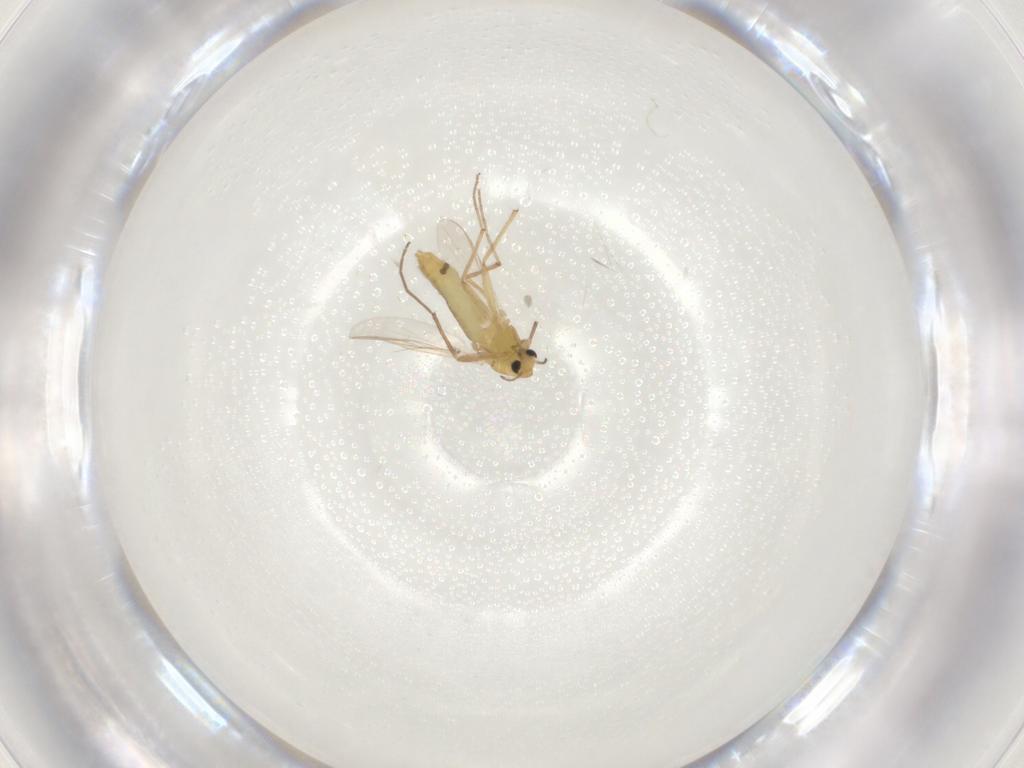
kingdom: Animalia
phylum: Arthropoda
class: Insecta
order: Diptera
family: Chironomidae
